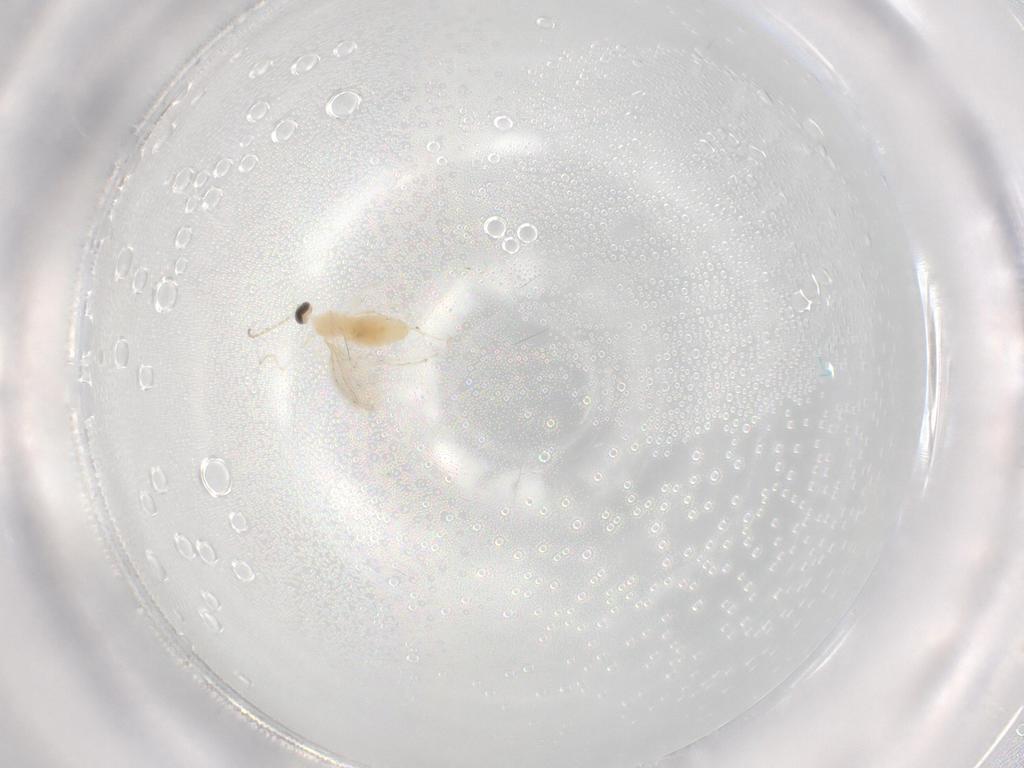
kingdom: Animalia
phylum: Arthropoda
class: Insecta
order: Diptera
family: Cecidomyiidae
